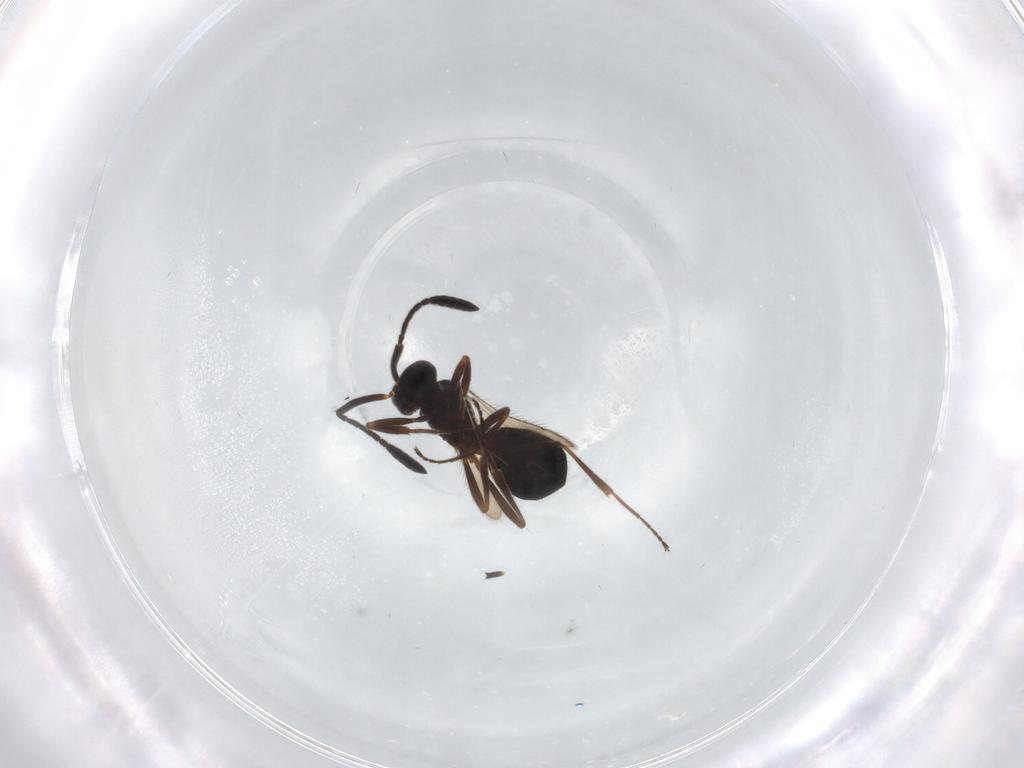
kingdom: Animalia
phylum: Arthropoda
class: Insecta
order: Hymenoptera
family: Scelionidae
